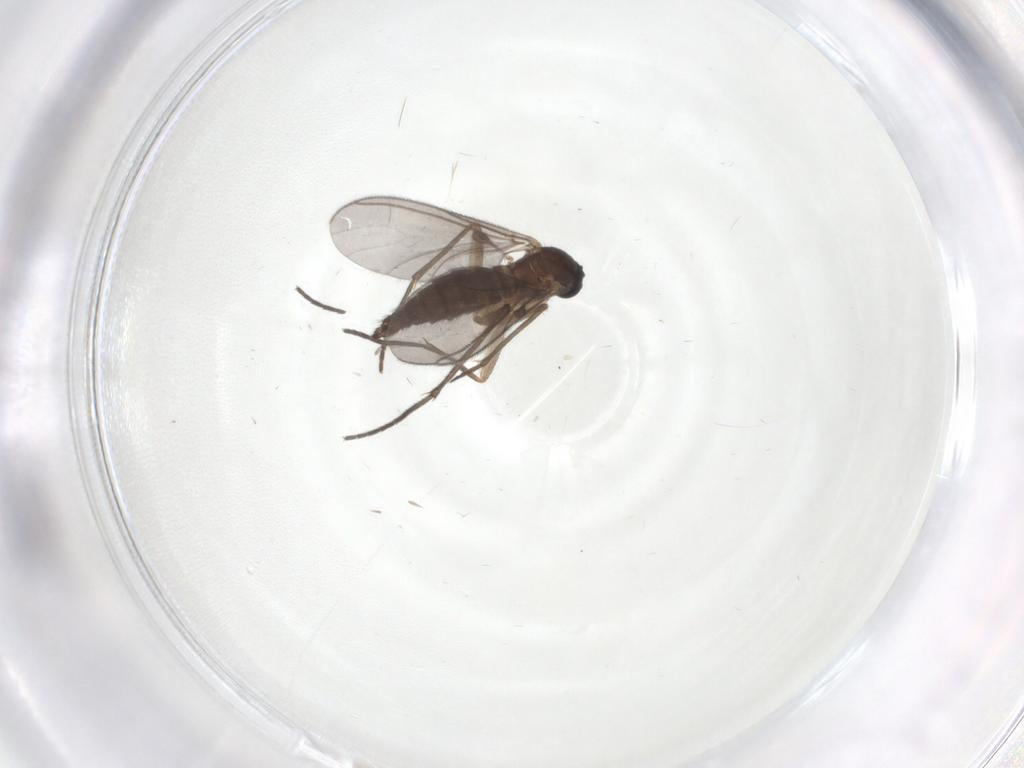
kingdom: Animalia
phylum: Arthropoda
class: Insecta
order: Diptera
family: Sciaridae
